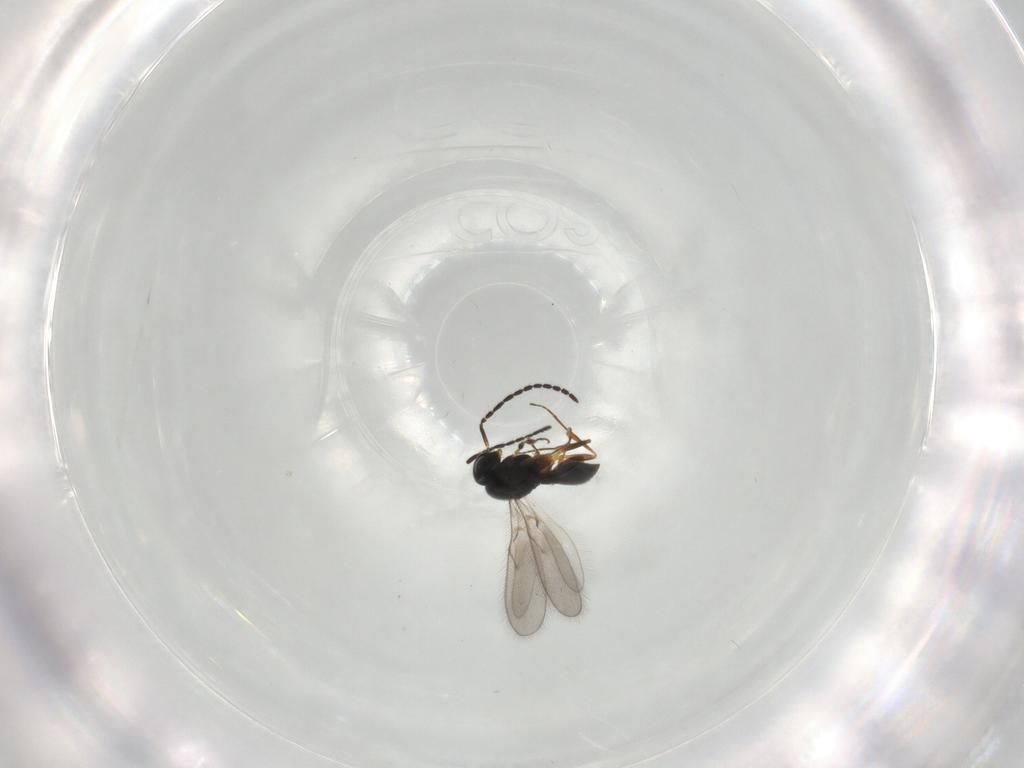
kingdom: Animalia
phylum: Arthropoda
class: Insecta
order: Hymenoptera
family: Scelionidae
